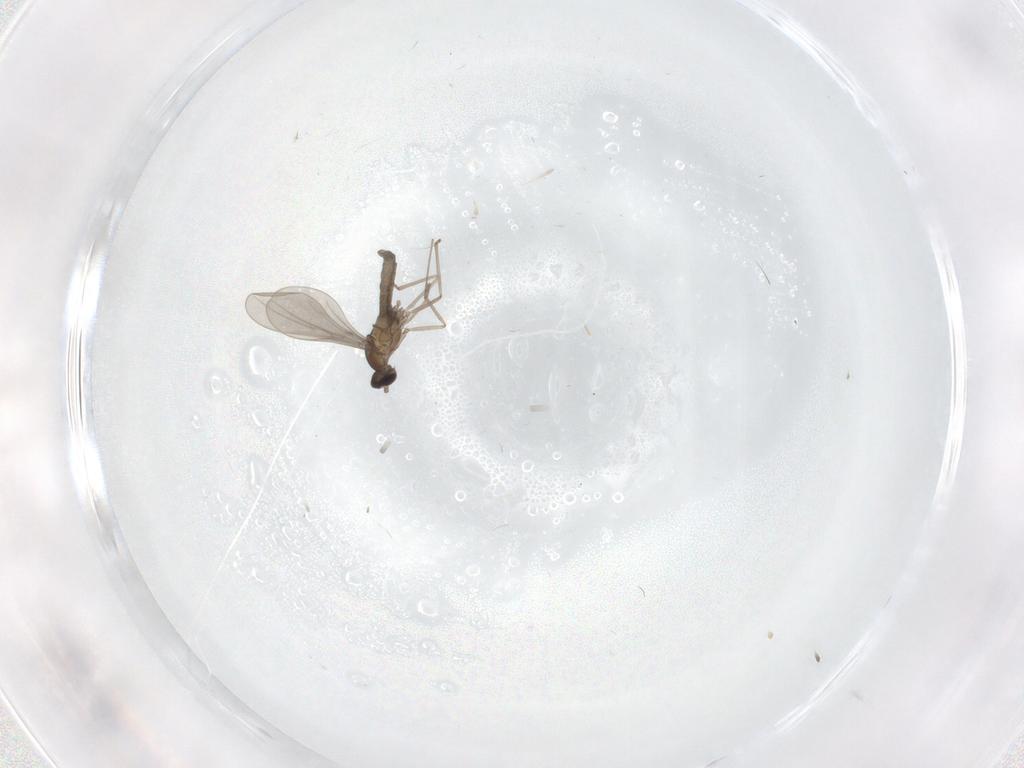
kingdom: Animalia
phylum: Arthropoda
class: Insecta
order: Diptera
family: Cecidomyiidae
